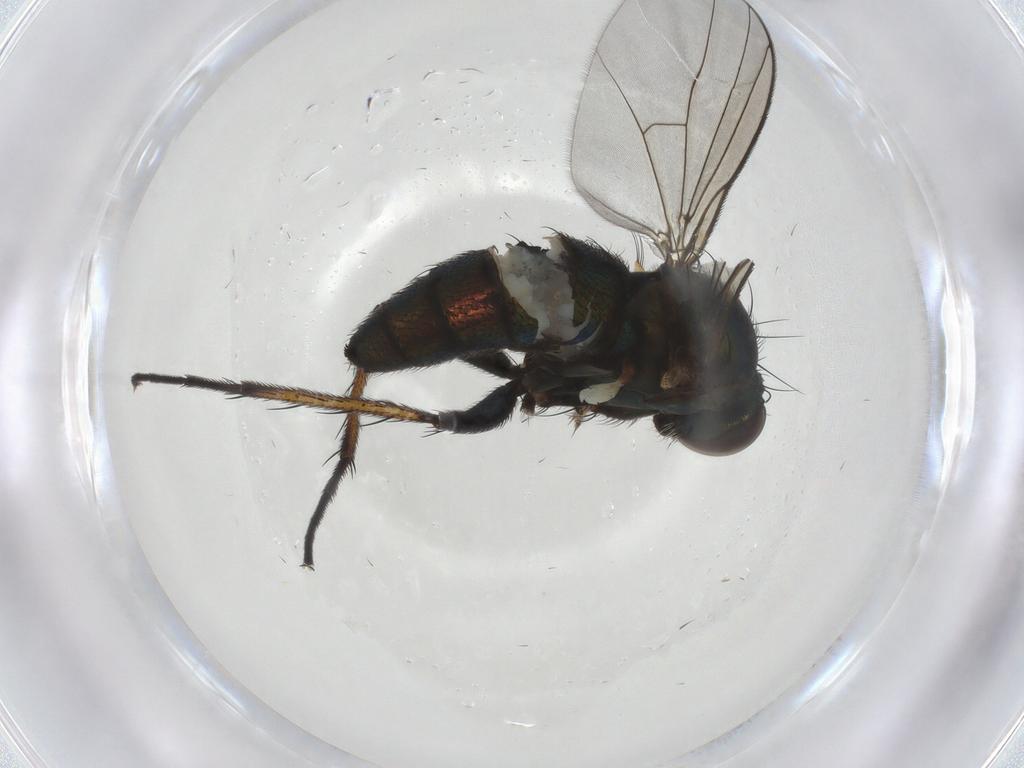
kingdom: Animalia
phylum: Arthropoda
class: Insecta
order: Diptera
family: Dolichopodidae
